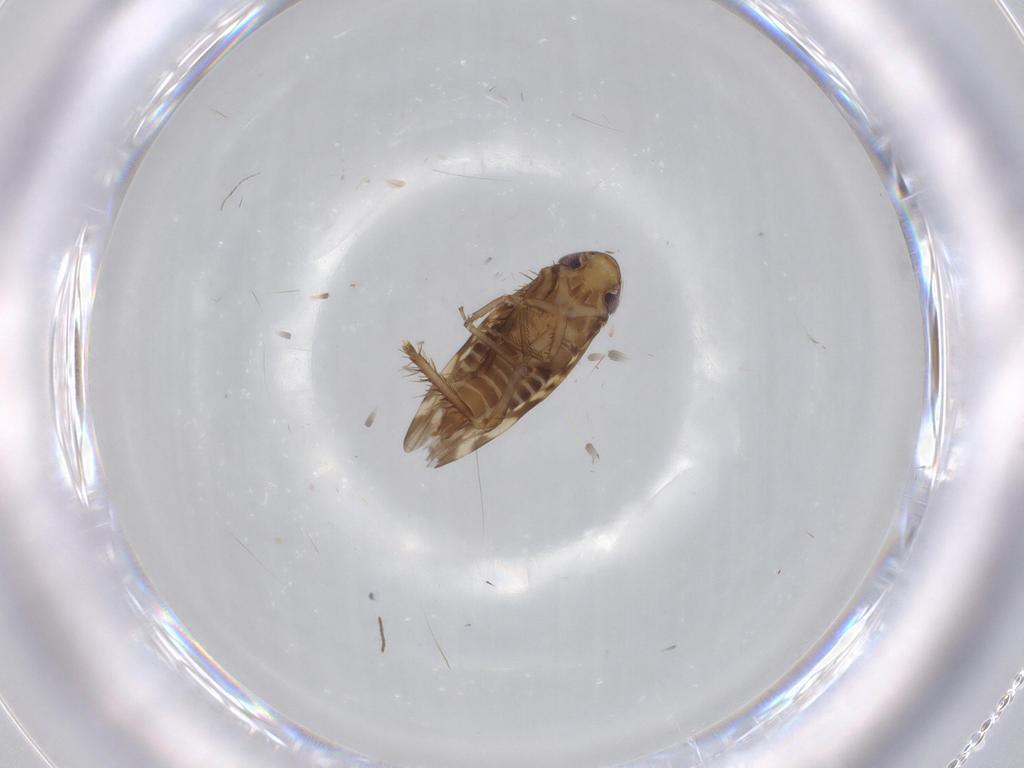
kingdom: Animalia
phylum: Arthropoda
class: Insecta
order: Hemiptera
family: Cicadellidae
